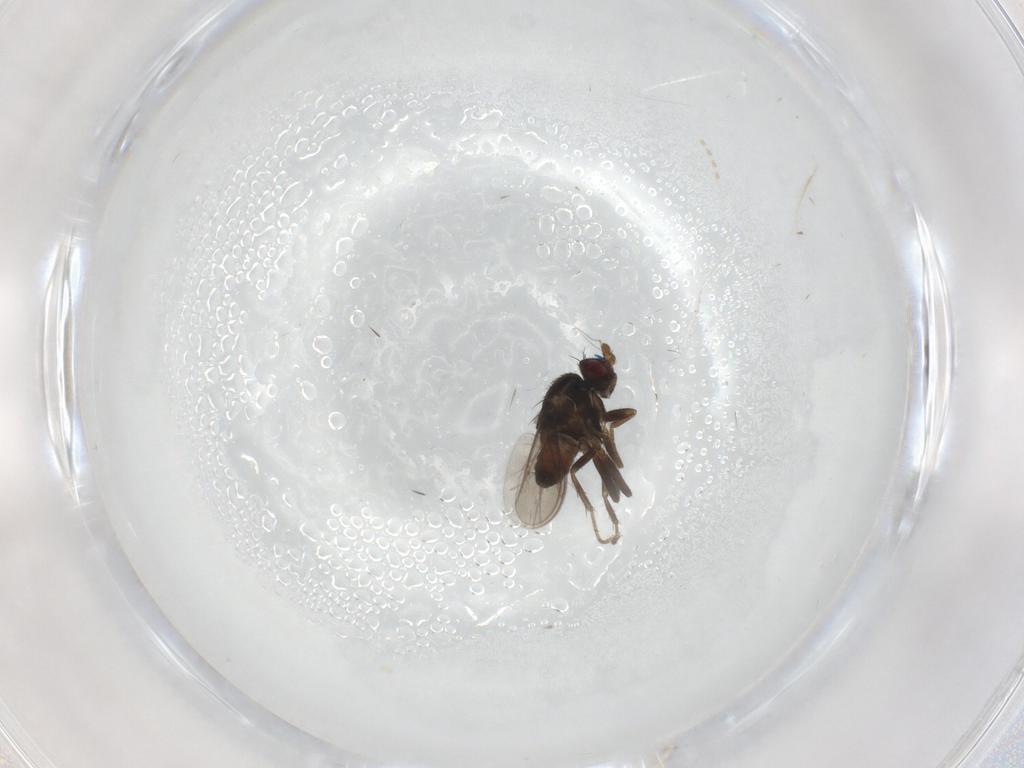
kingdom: Animalia
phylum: Arthropoda
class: Insecta
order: Diptera
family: Sphaeroceridae
